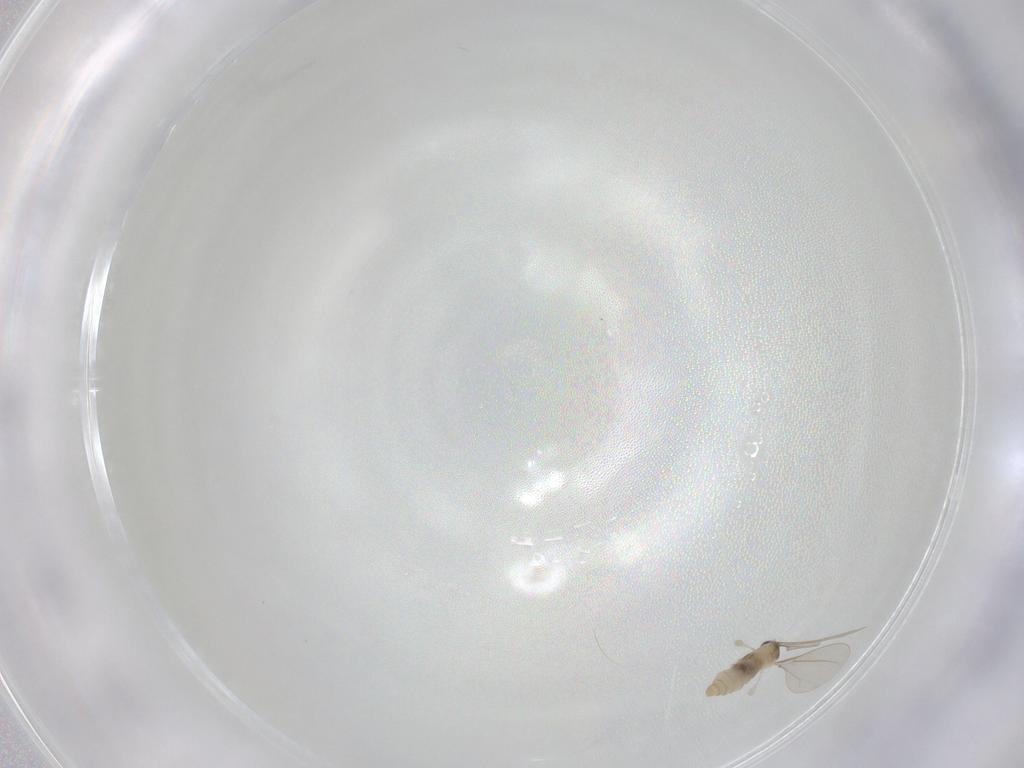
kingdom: Animalia
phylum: Arthropoda
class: Insecta
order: Diptera
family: Cecidomyiidae
